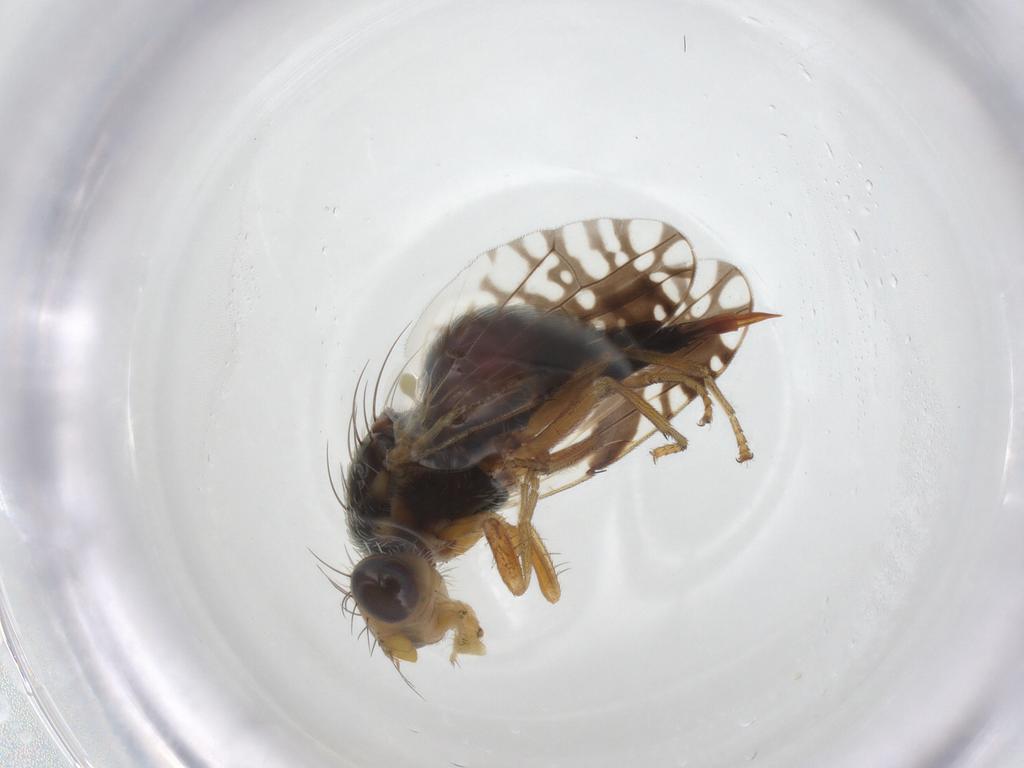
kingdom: Animalia
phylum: Arthropoda
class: Insecta
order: Diptera
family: Tephritidae
